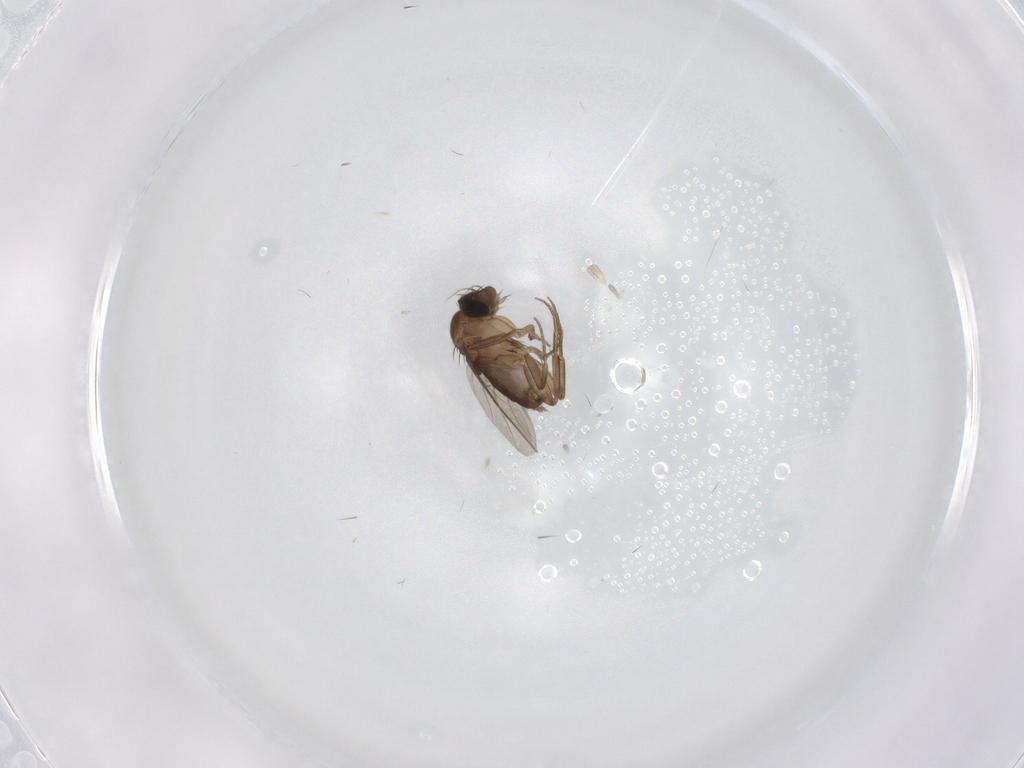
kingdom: Animalia
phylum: Arthropoda
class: Insecta
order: Diptera
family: Phoridae
